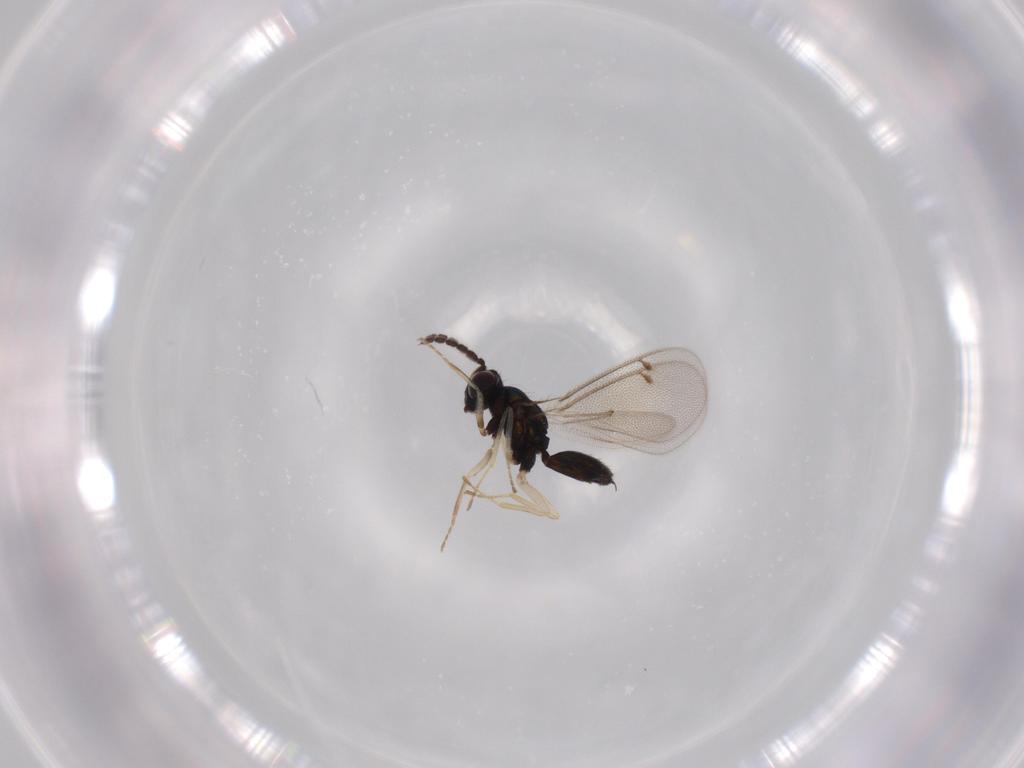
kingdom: Animalia
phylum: Arthropoda
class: Insecta
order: Hymenoptera
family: Eulophidae
